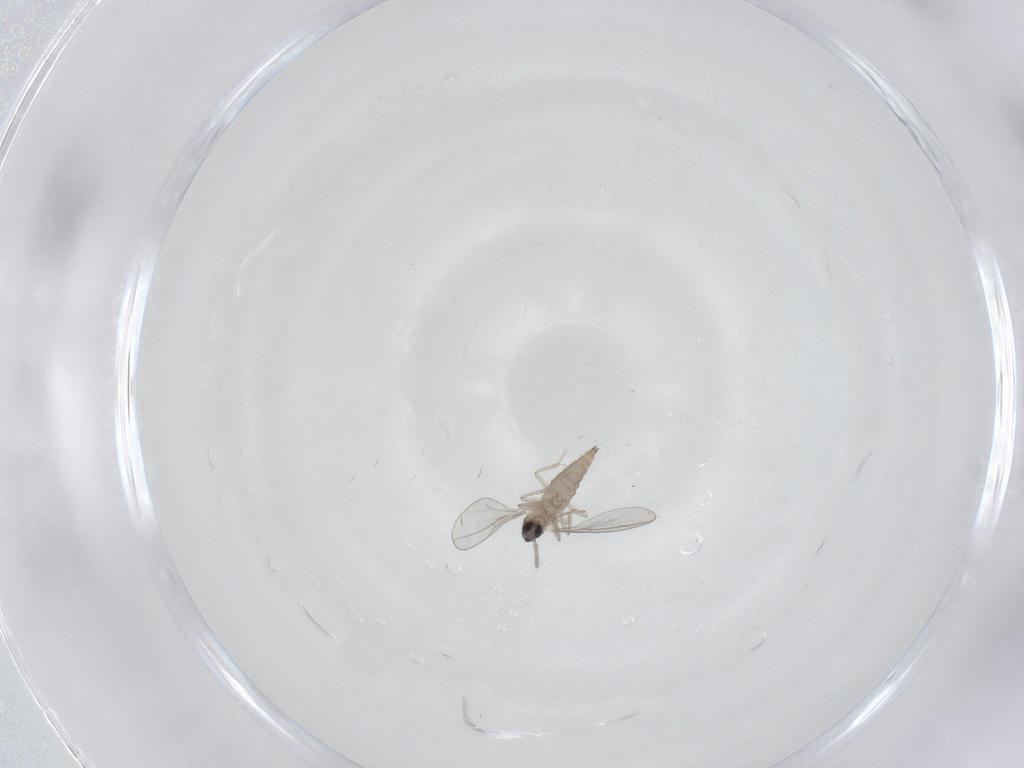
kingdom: Animalia
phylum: Arthropoda
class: Insecta
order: Diptera
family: Cecidomyiidae
